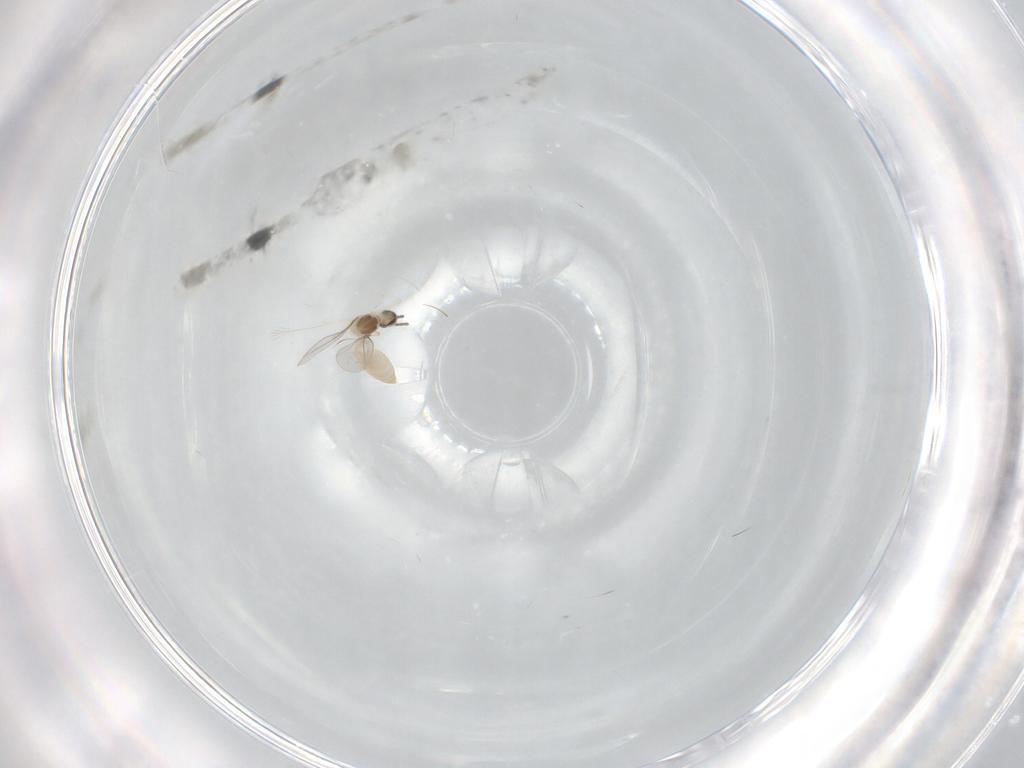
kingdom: Animalia
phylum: Arthropoda
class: Insecta
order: Diptera
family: Cecidomyiidae
